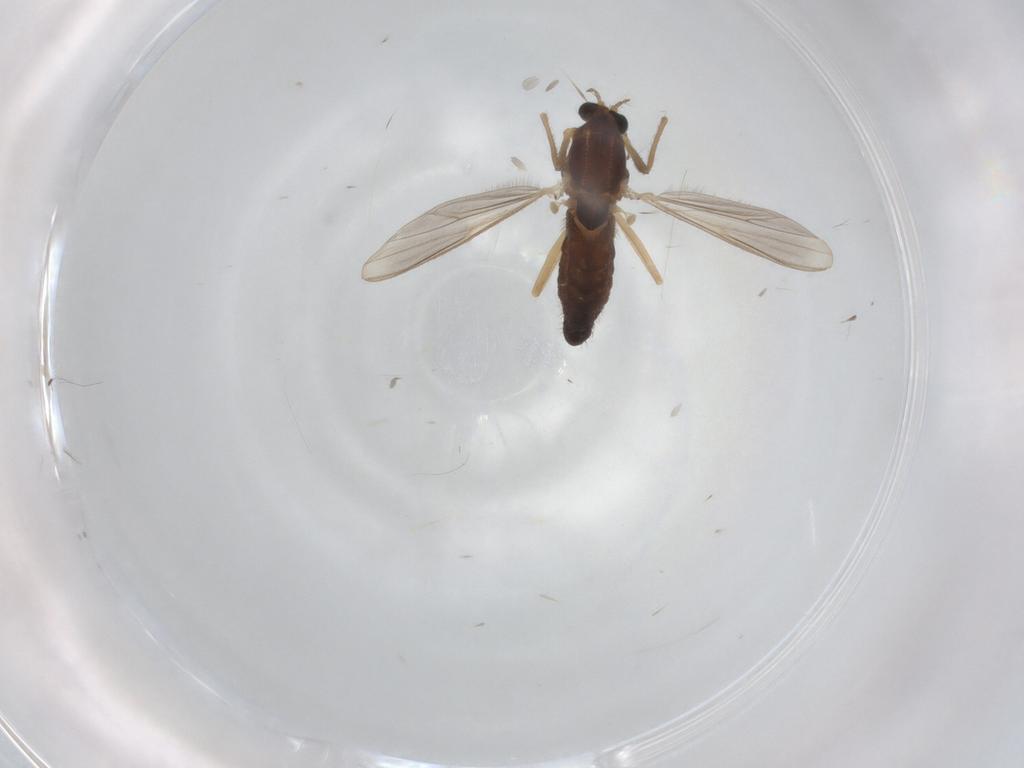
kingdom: Animalia
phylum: Arthropoda
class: Insecta
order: Diptera
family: Chironomidae
